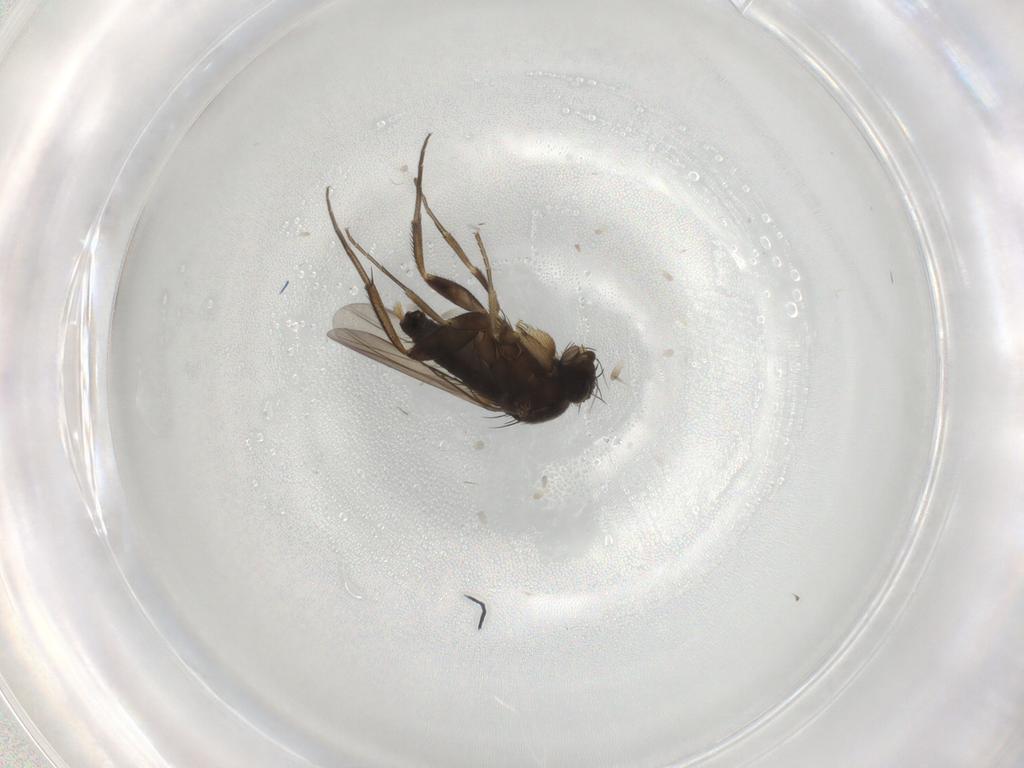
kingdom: Animalia
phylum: Arthropoda
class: Insecta
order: Diptera
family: Phoridae
